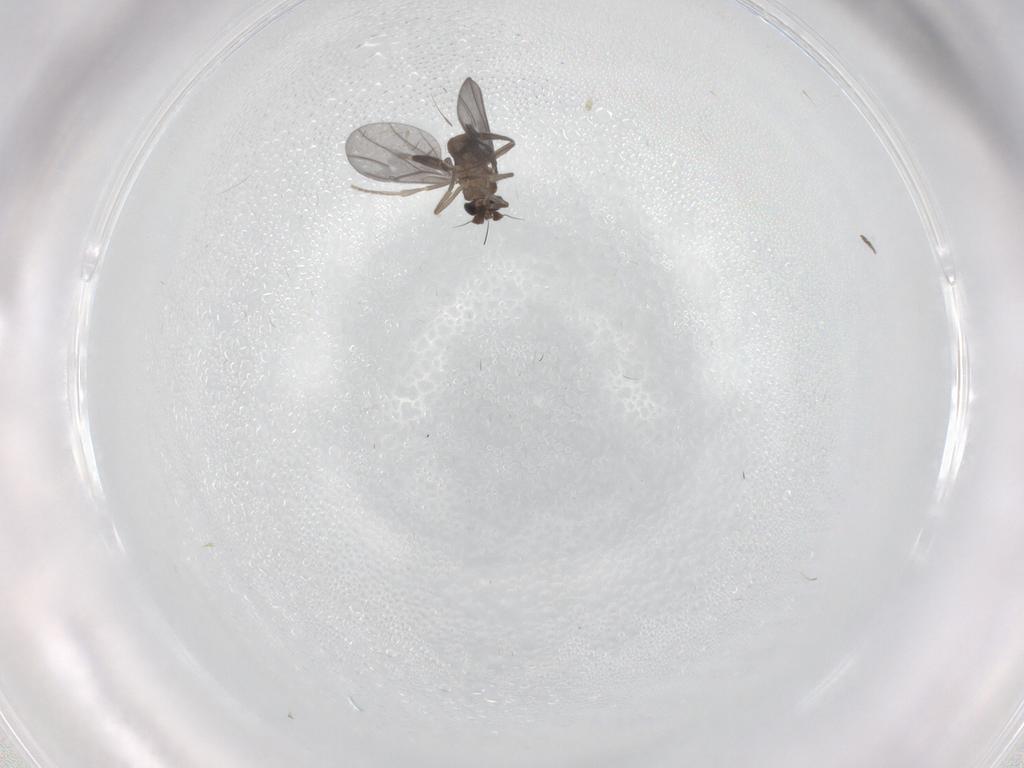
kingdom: Animalia
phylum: Arthropoda
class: Insecta
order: Diptera
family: Phoridae
